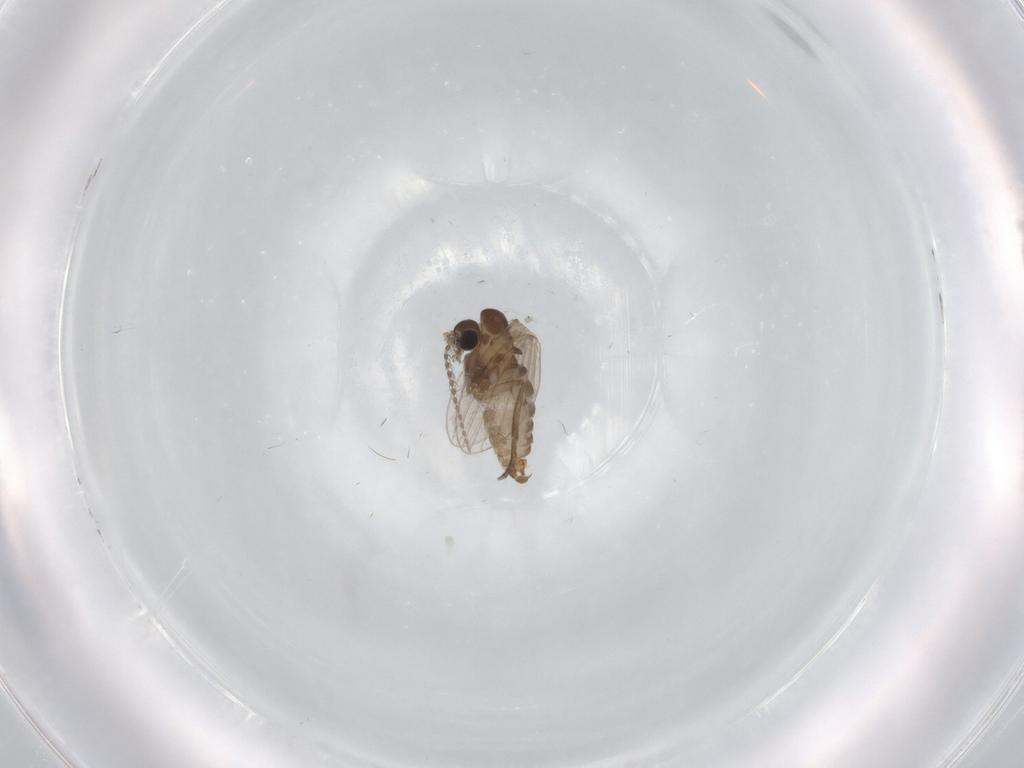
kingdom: Animalia
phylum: Arthropoda
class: Insecta
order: Diptera
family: Psychodidae
